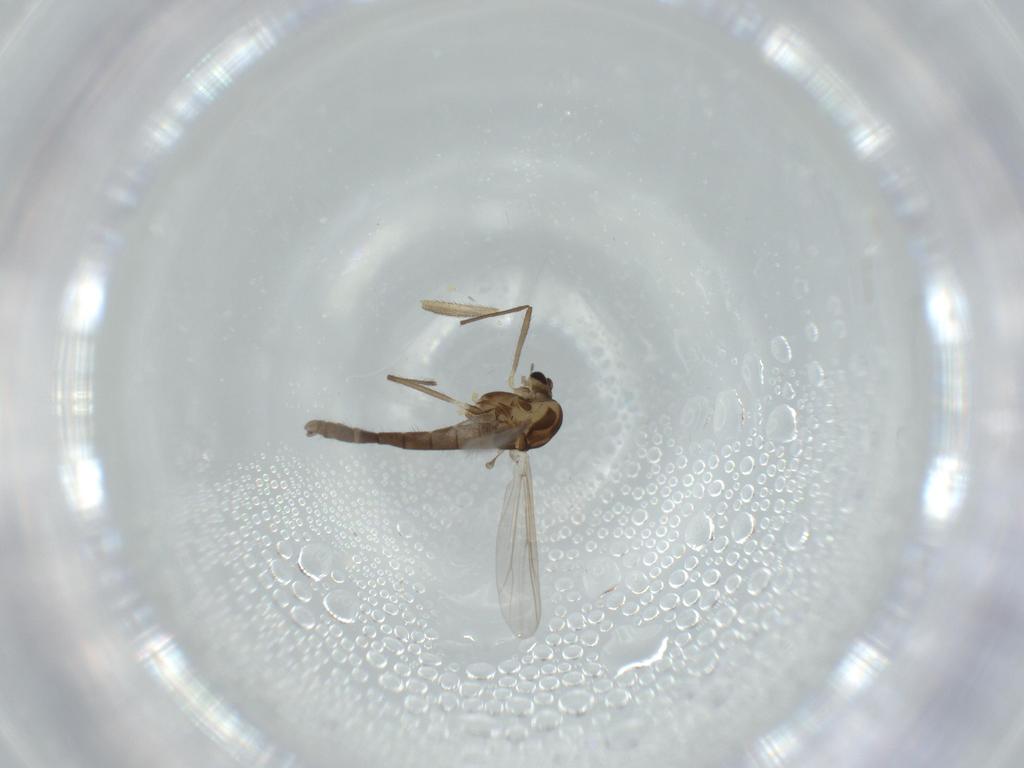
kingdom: Animalia
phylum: Arthropoda
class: Insecta
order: Diptera
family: Chironomidae
